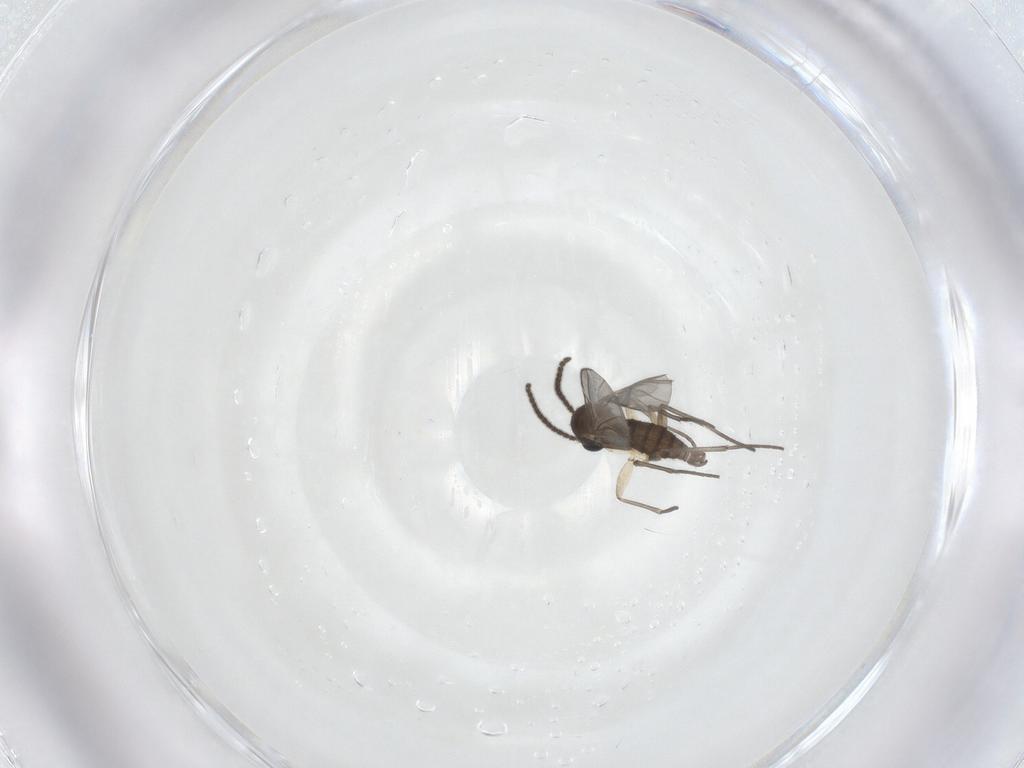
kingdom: Animalia
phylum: Arthropoda
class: Insecta
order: Diptera
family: Sciaridae
